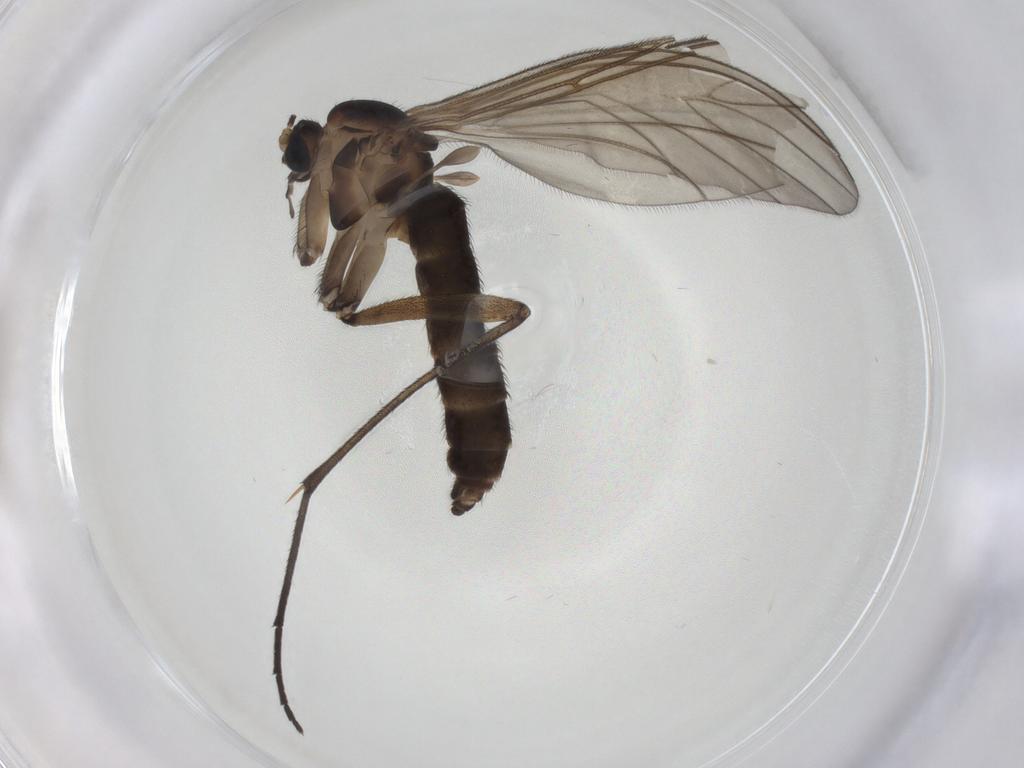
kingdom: Animalia
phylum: Arthropoda
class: Insecta
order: Diptera
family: Sciaridae
